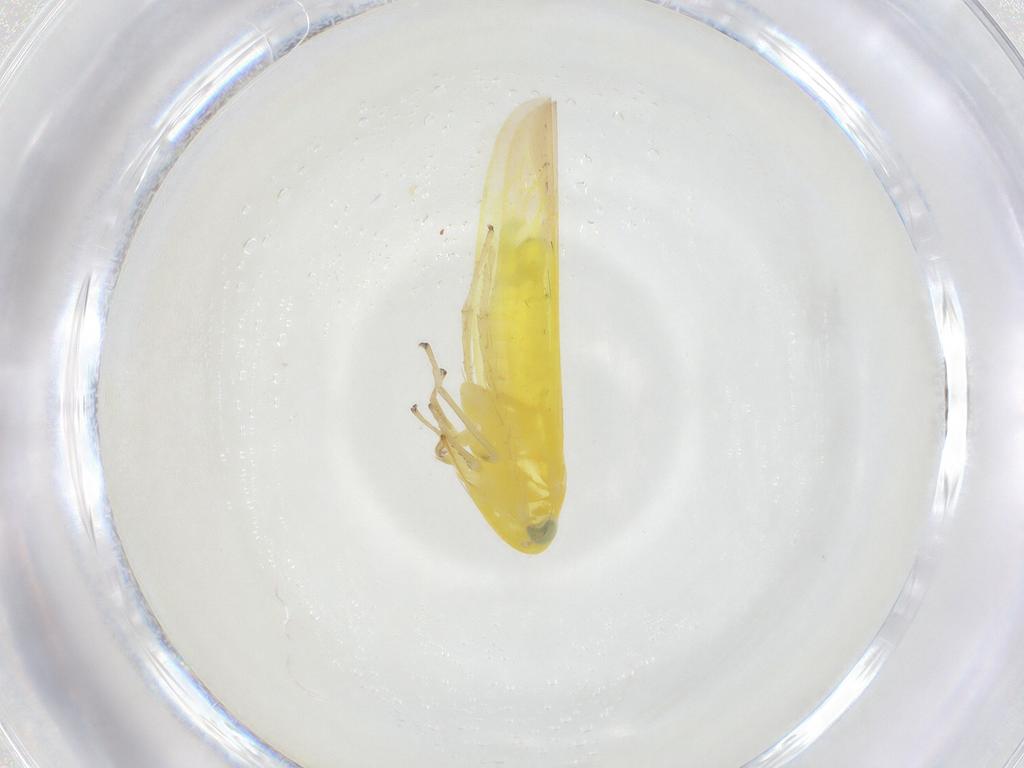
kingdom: Animalia
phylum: Arthropoda
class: Insecta
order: Hemiptera
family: Cicadellidae
